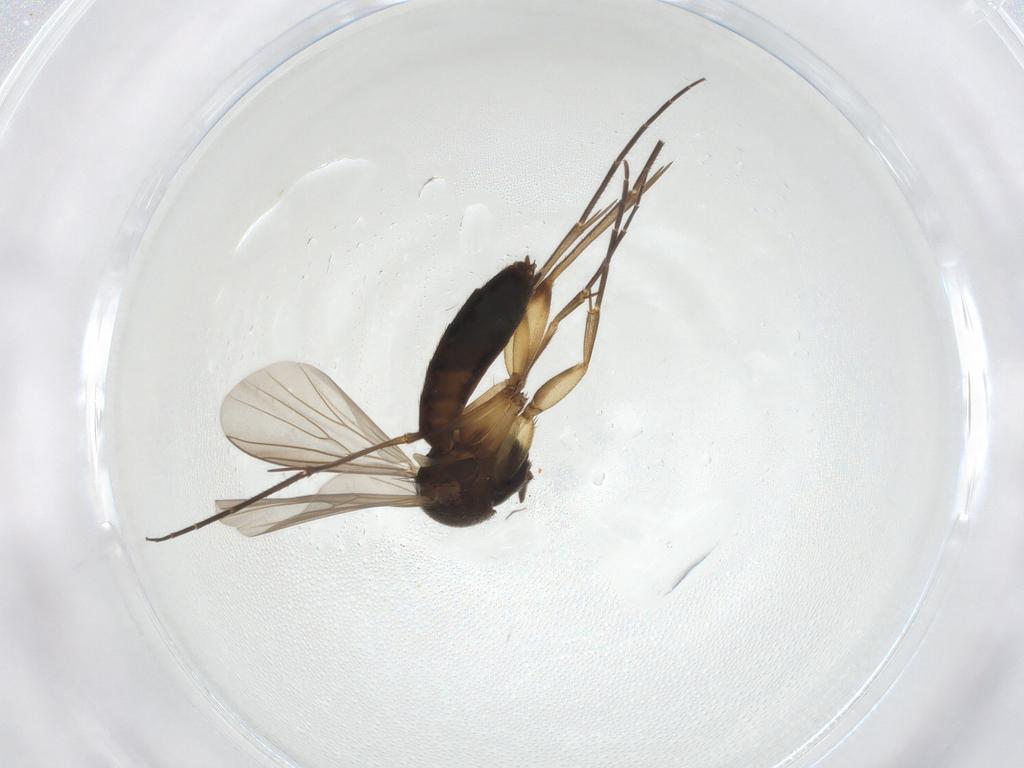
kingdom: Animalia
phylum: Arthropoda
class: Insecta
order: Diptera
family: Mycetophilidae
